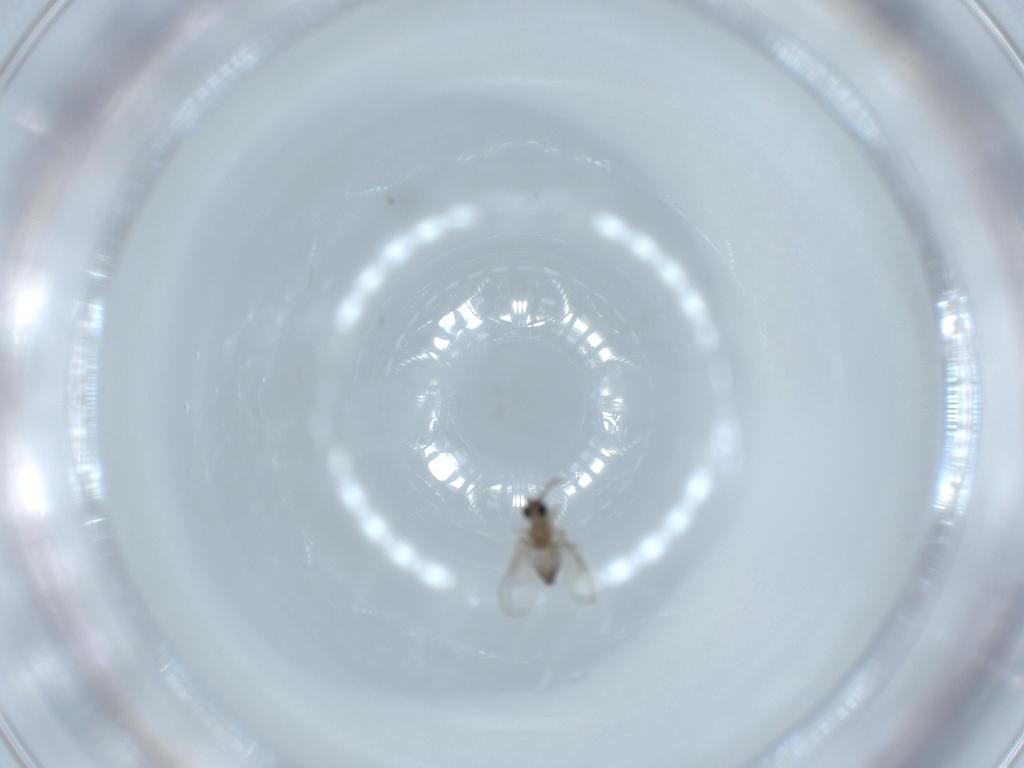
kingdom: Animalia
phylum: Arthropoda
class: Insecta
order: Diptera
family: Cecidomyiidae
